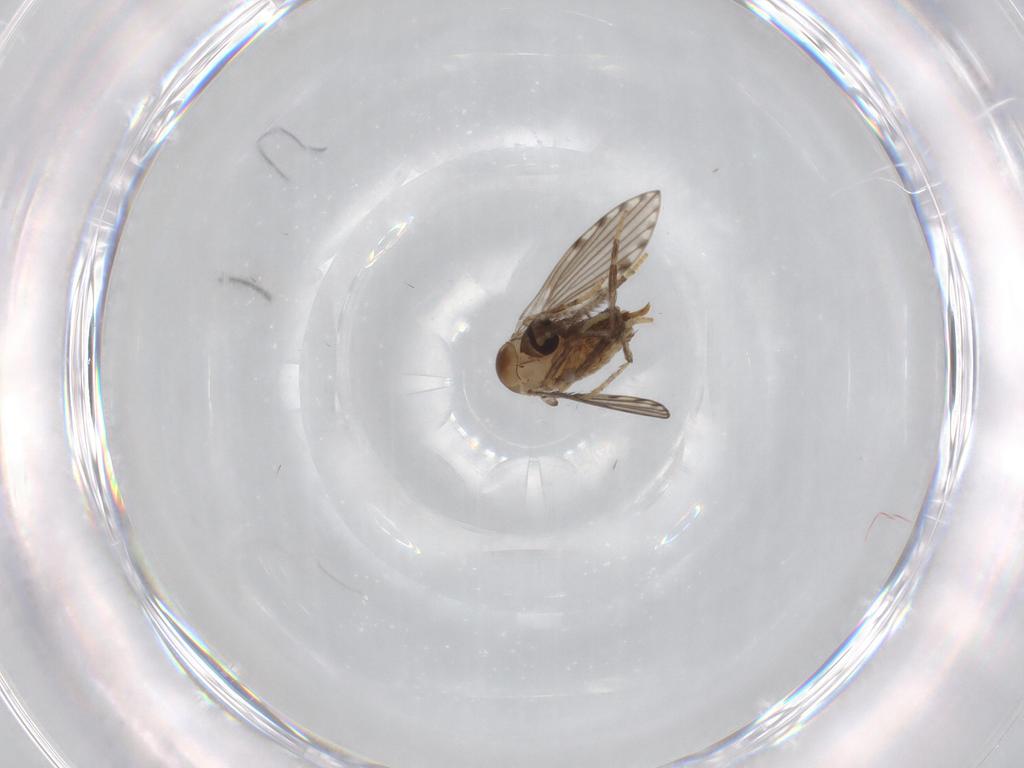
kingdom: Animalia
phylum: Arthropoda
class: Insecta
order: Diptera
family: Psychodidae
